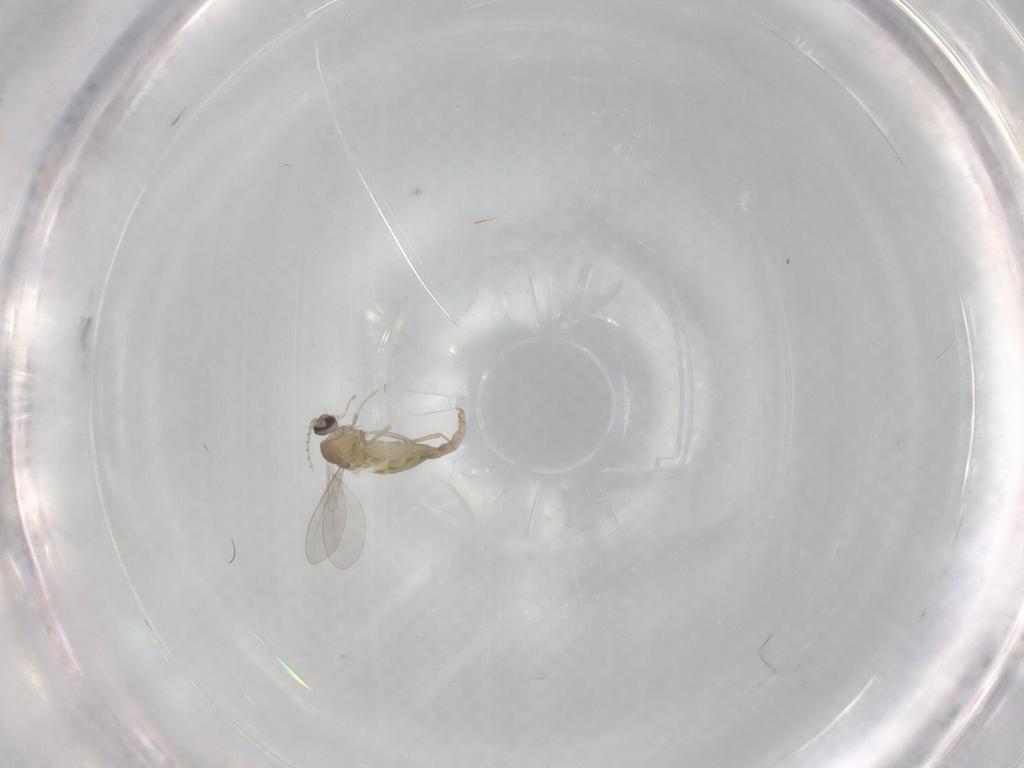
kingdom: Animalia
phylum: Arthropoda
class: Insecta
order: Diptera
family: Cecidomyiidae
